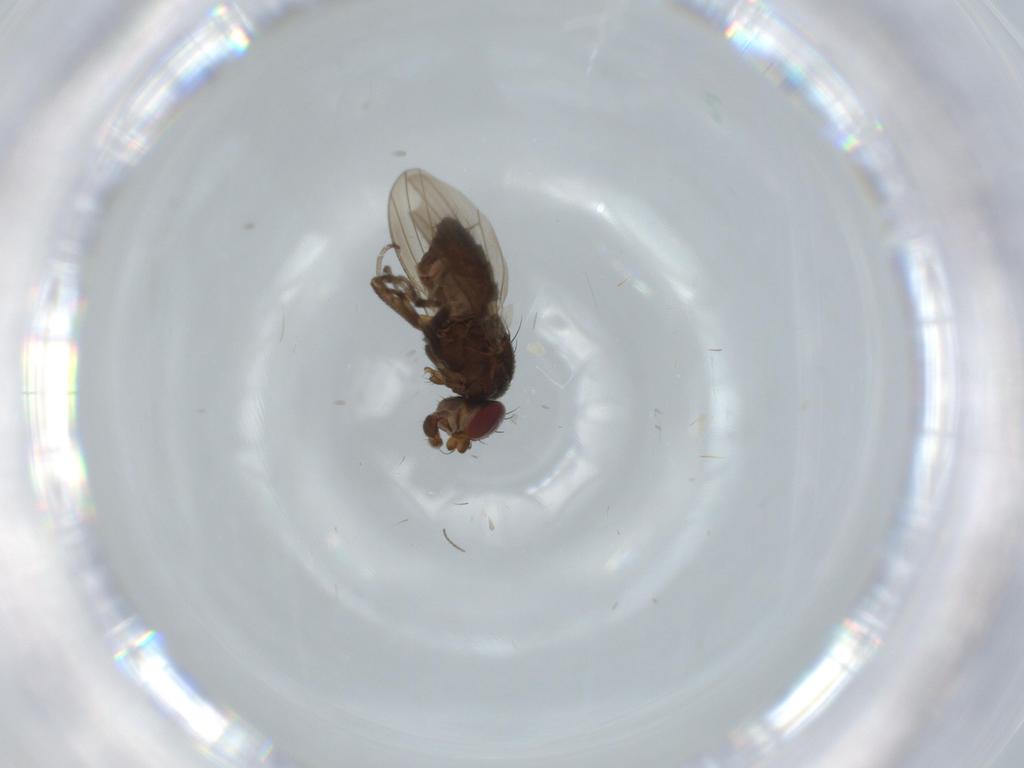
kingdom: Animalia
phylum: Arthropoda
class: Insecta
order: Diptera
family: Heleomyzidae
